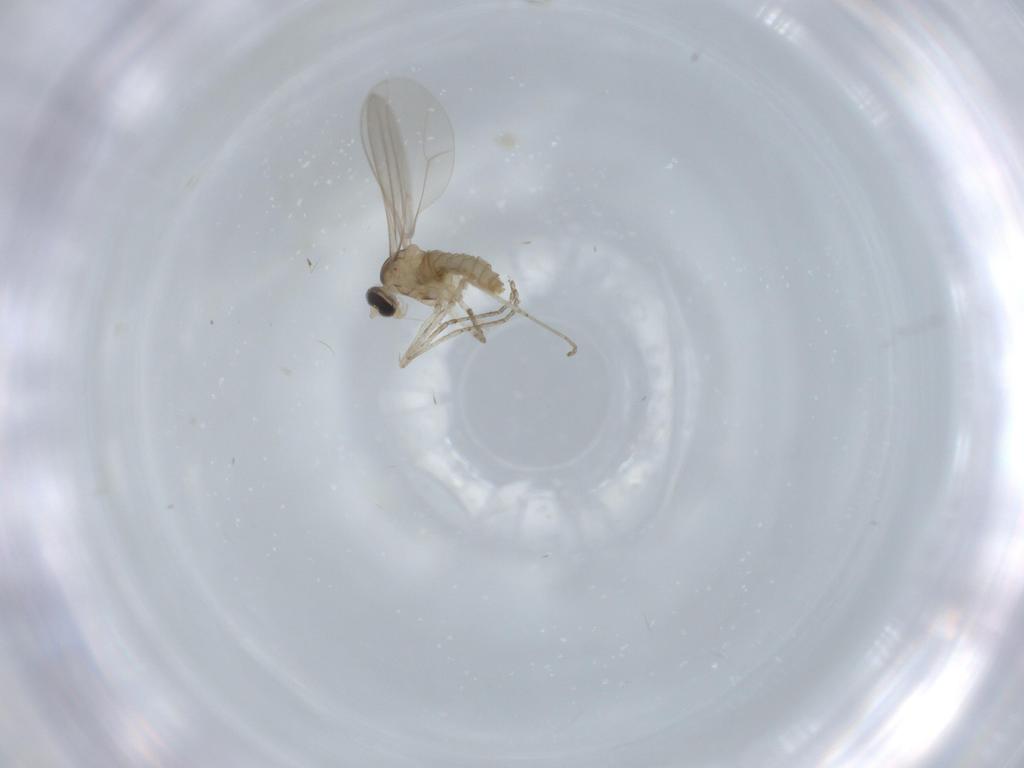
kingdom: Animalia
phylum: Arthropoda
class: Insecta
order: Diptera
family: Cecidomyiidae
